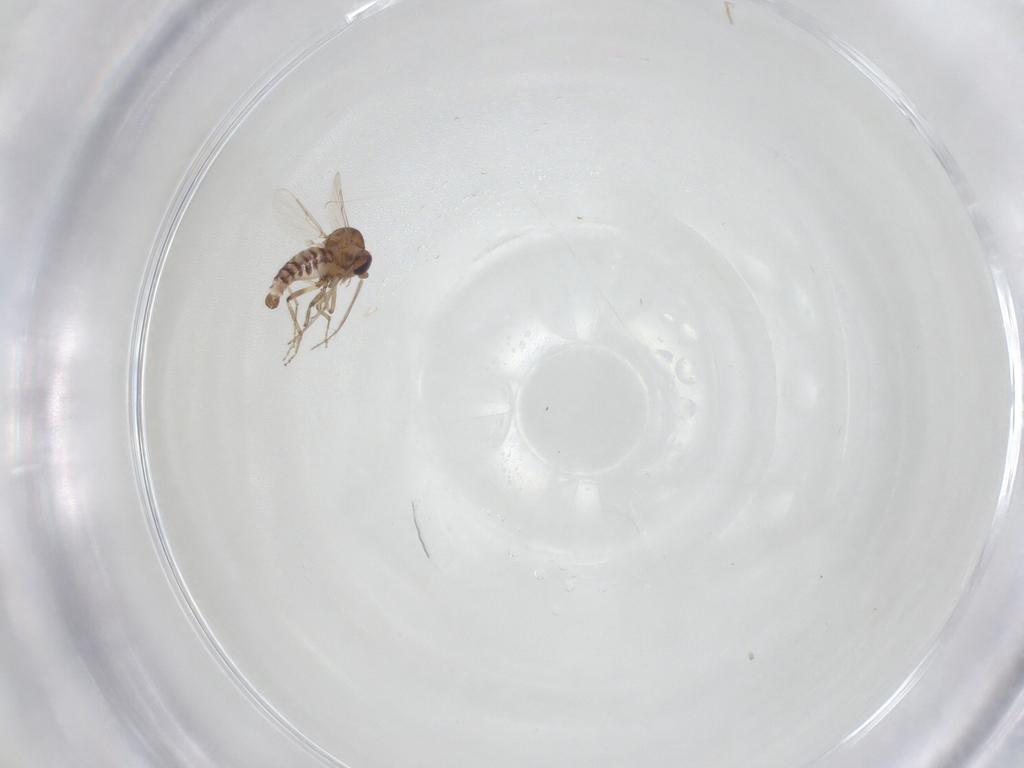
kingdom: Animalia
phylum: Arthropoda
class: Insecta
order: Diptera
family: Ceratopogonidae
